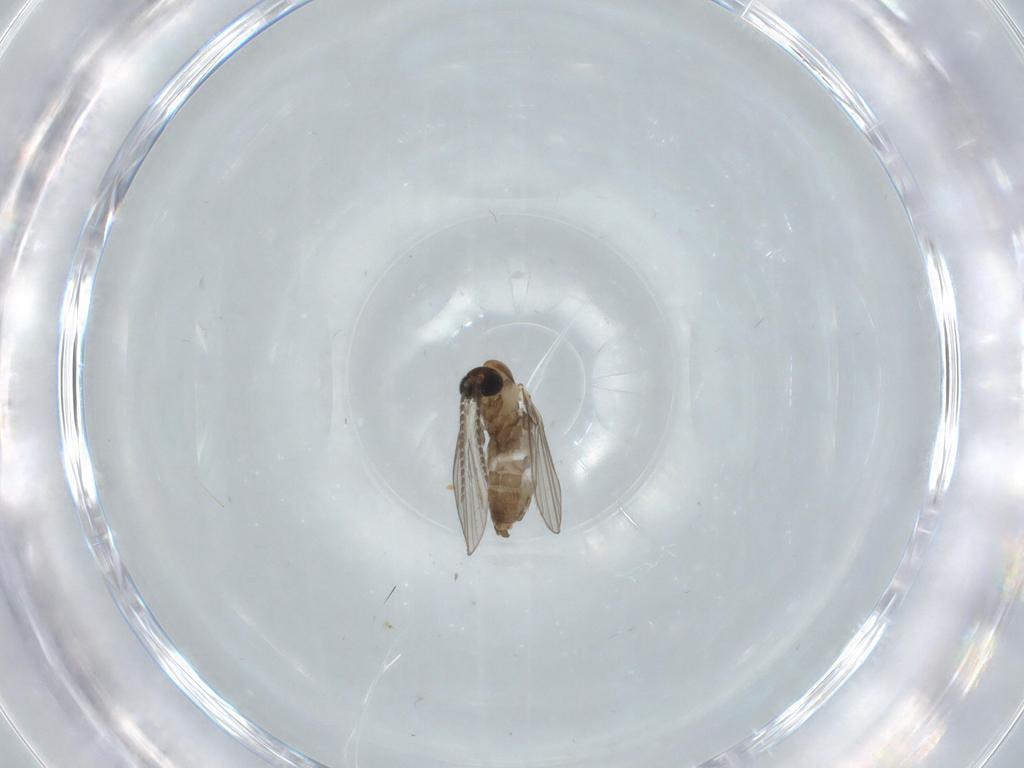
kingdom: Animalia
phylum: Arthropoda
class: Insecta
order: Diptera
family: Psychodidae
